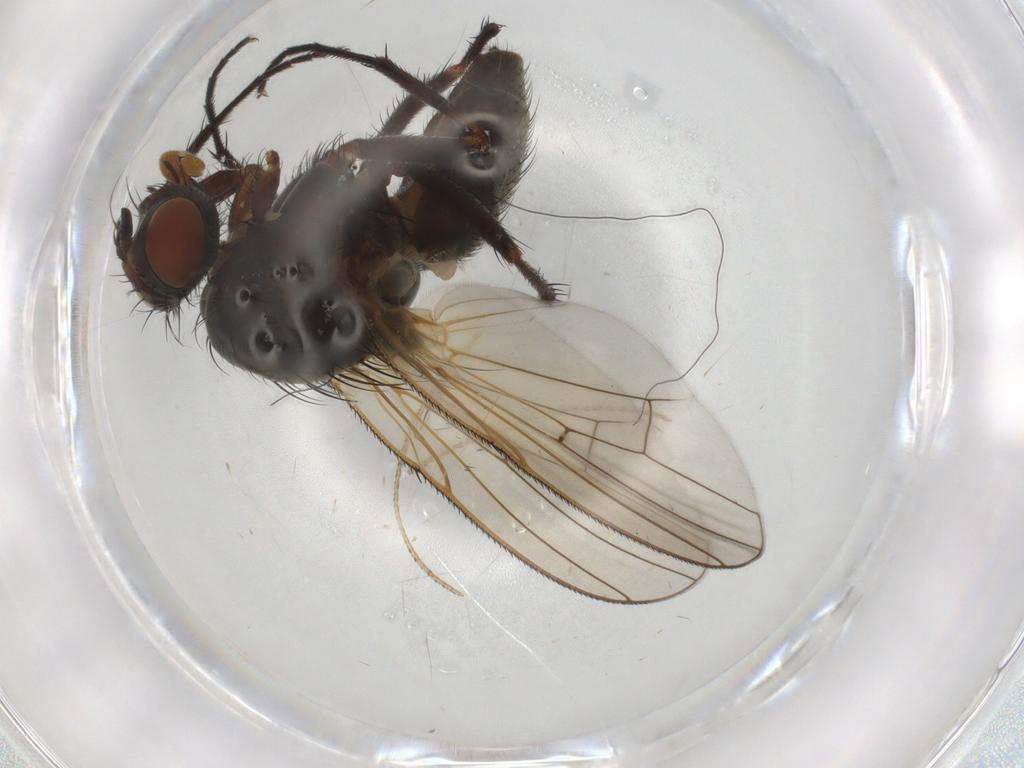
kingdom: Animalia
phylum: Arthropoda
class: Insecta
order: Diptera
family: Anthomyiidae
